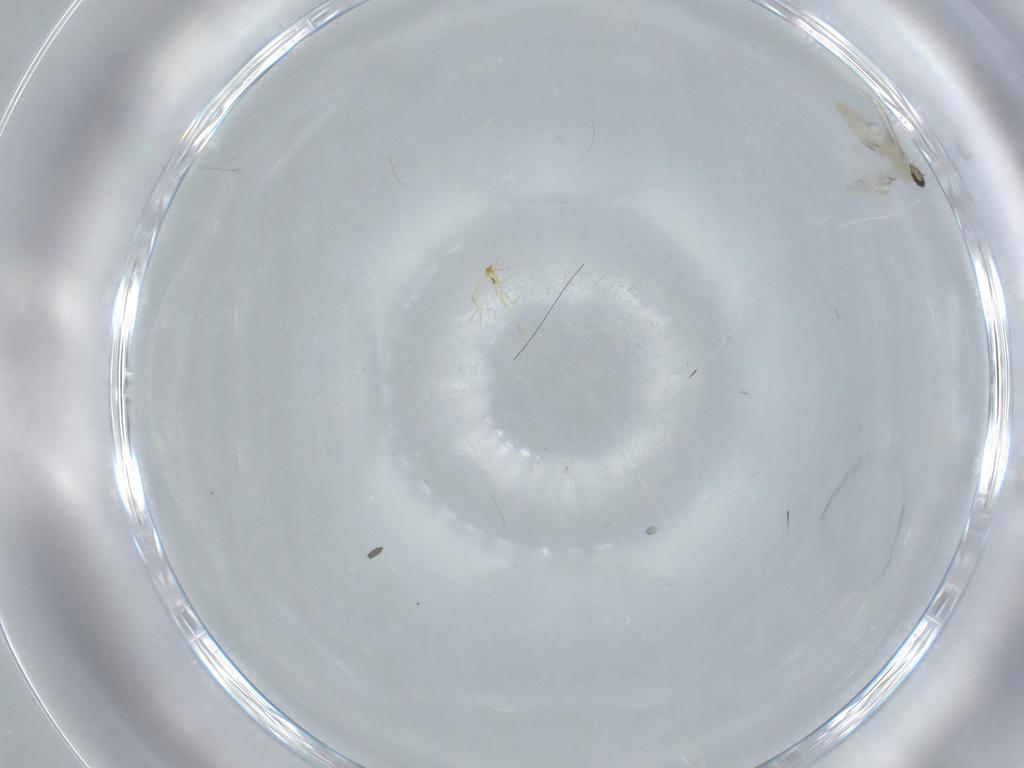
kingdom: Animalia
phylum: Arthropoda
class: Insecta
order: Diptera
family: Cecidomyiidae
